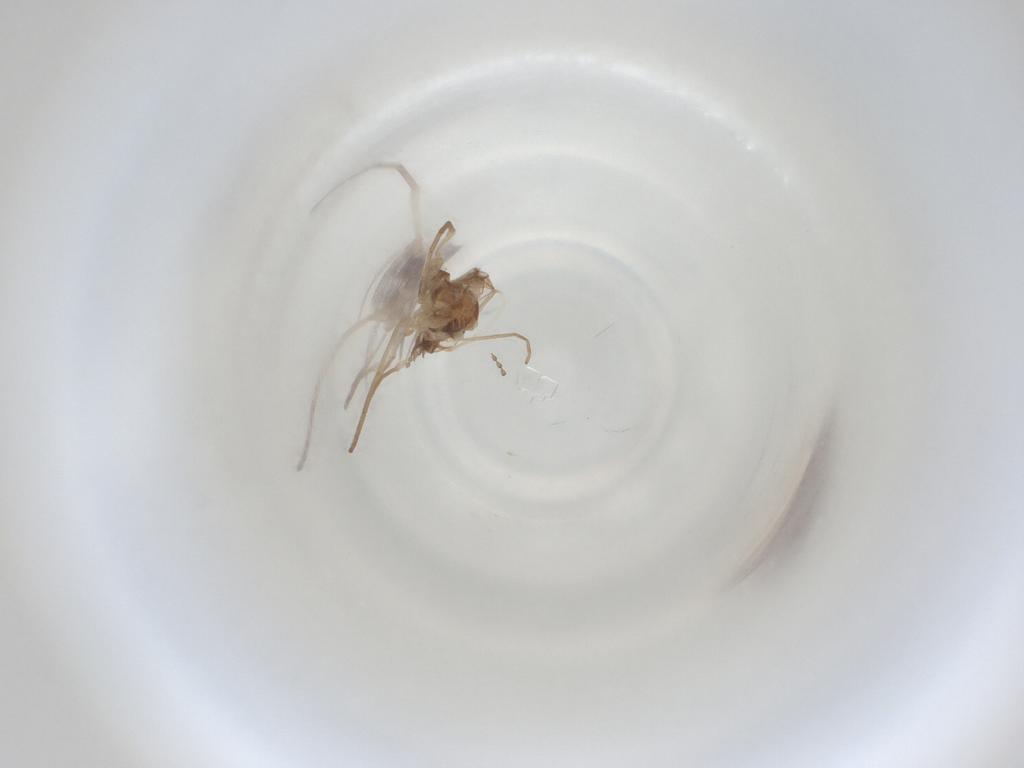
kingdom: Animalia
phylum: Arthropoda
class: Insecta
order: Diptera
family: Cecidomyiidae
